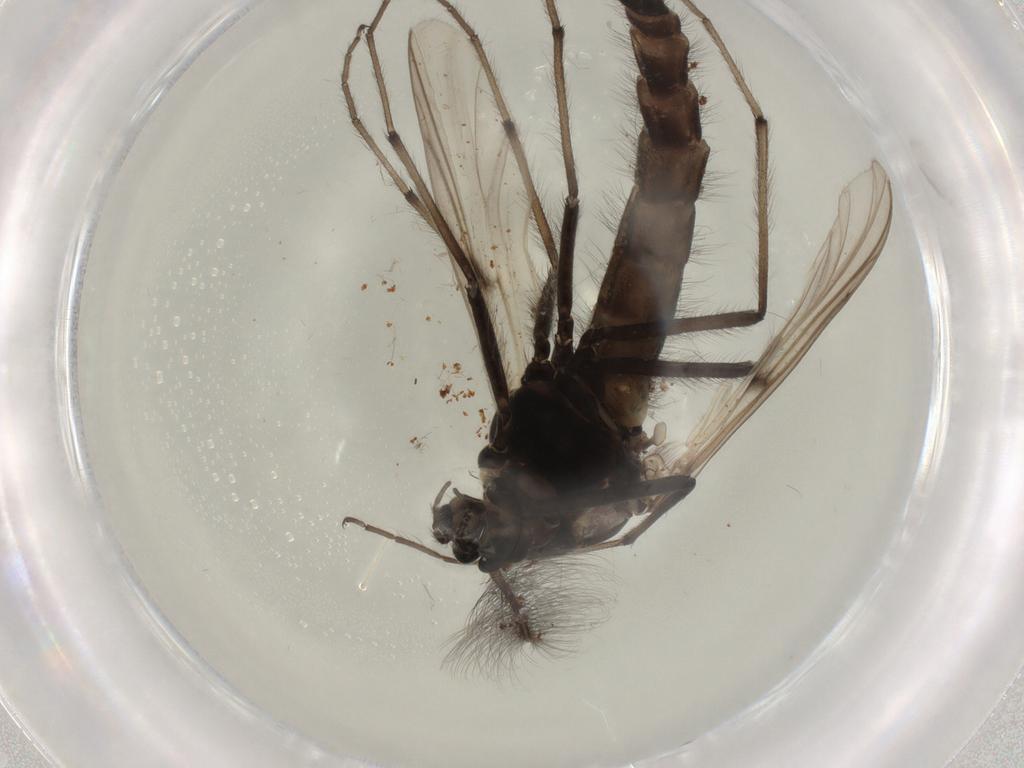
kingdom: Animalia
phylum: Arthropoda
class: Insecta
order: Diptera
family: Chironomidae
